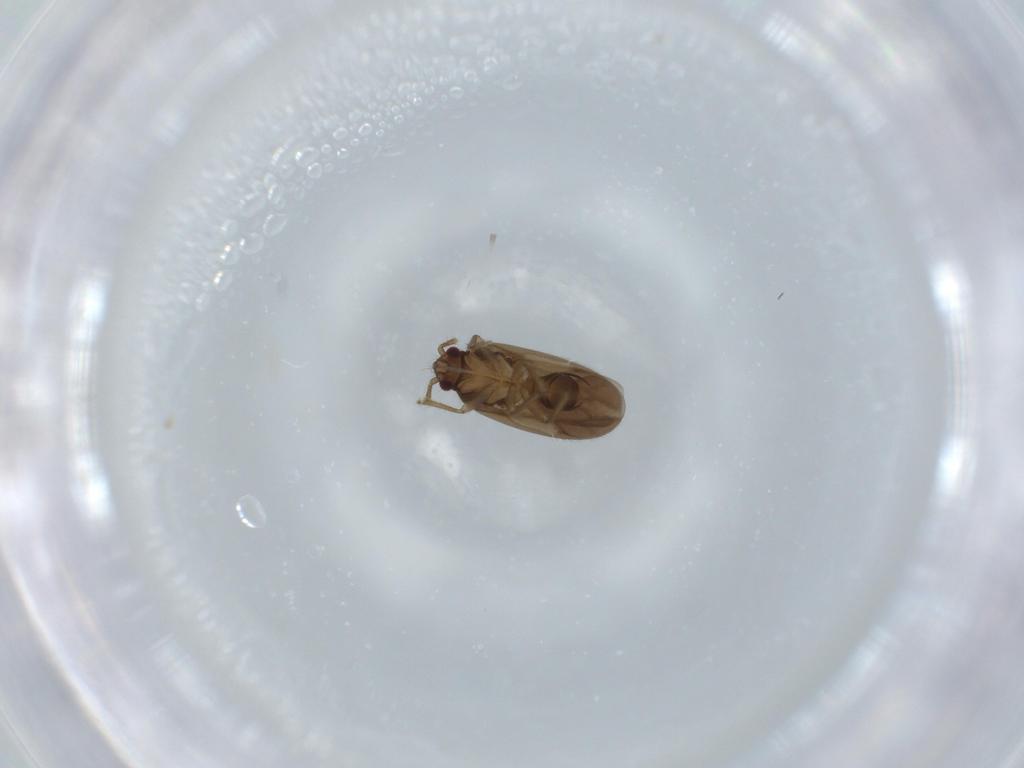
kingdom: Animalia
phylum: Arthropoda
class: Insecta
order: Hemiptera
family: Ceratocombidae
